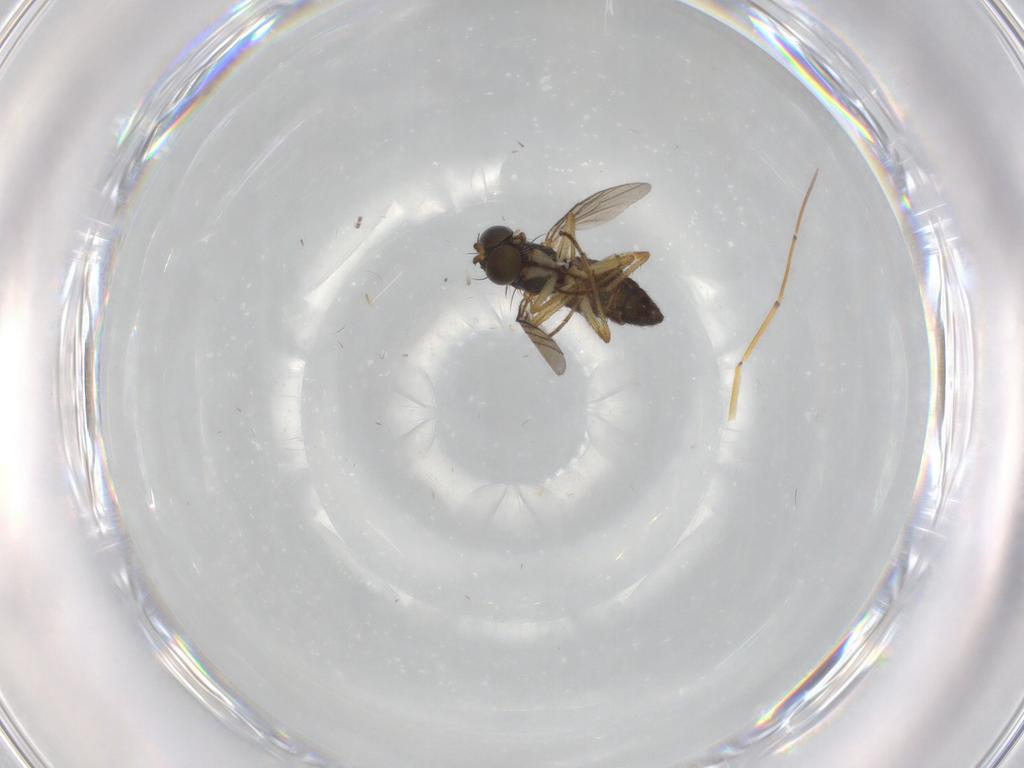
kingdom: Animalia
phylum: Arthropoda
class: Insecta
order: Diptera
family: Sciaridae
